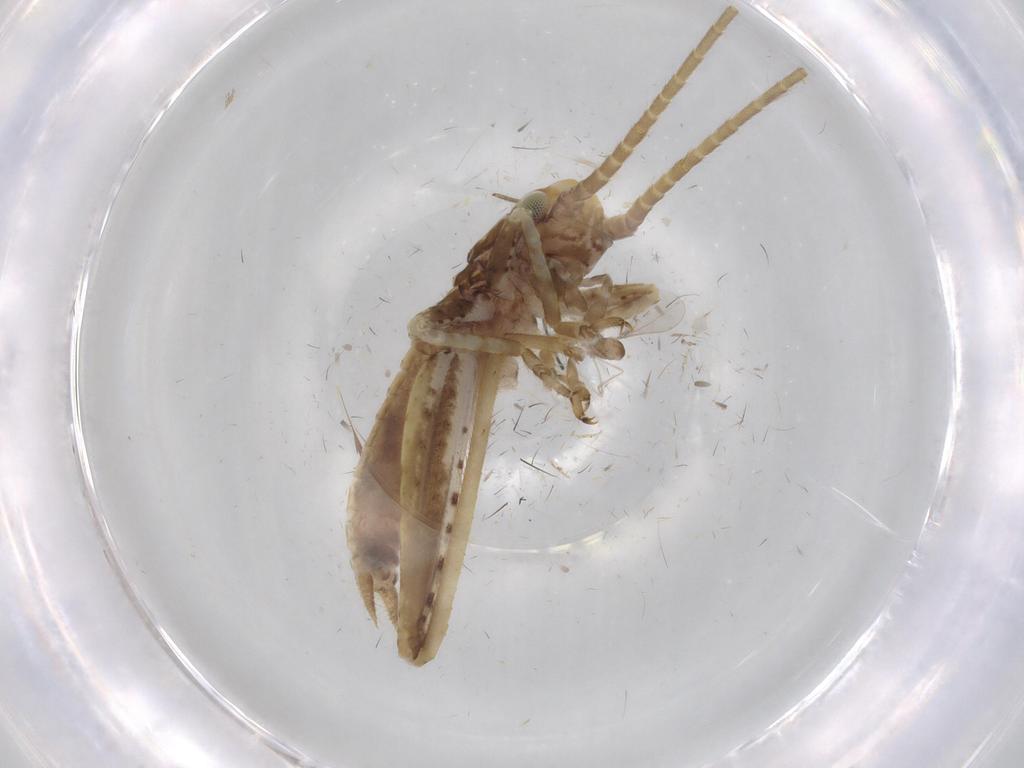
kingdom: Animalia
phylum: Arthropoda
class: Insecta
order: Orthoptera
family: Gryllidae
